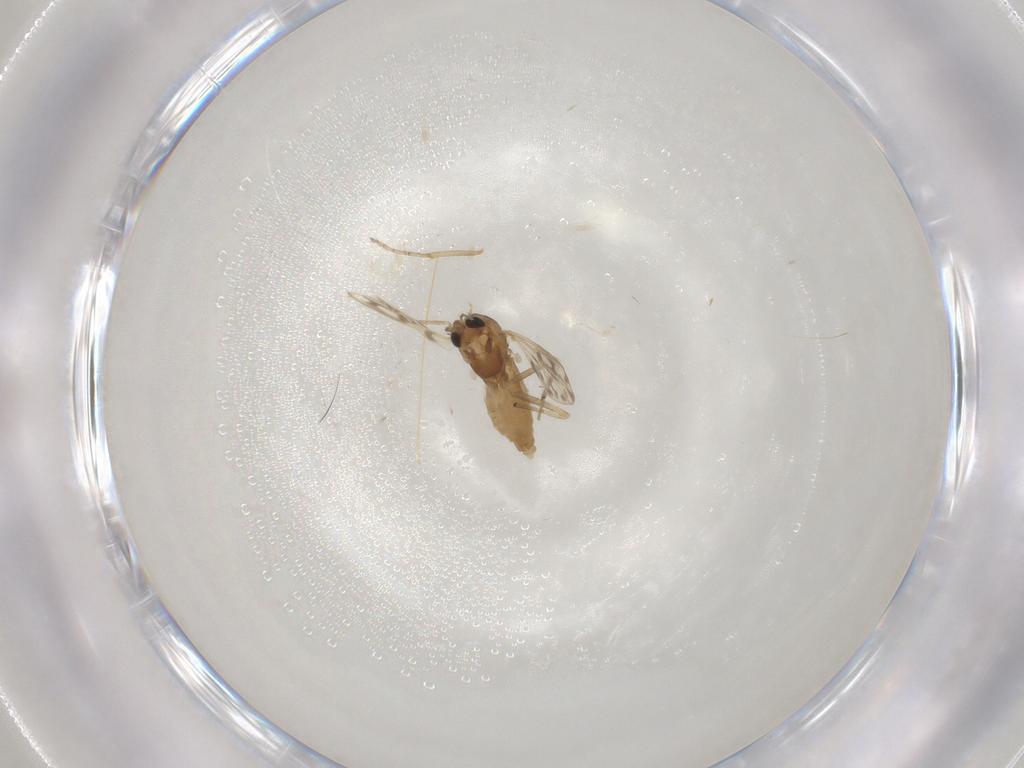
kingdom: Animalia
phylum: Arthropoda
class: Insecta
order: Diptera
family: Chironomidae
